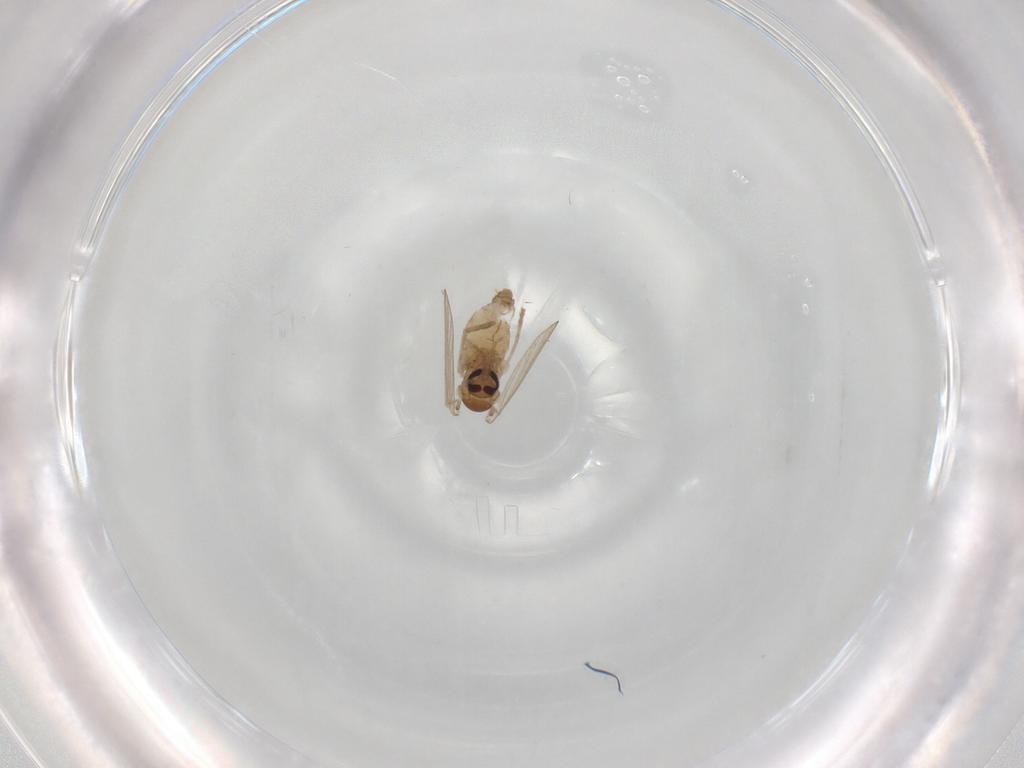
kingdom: Animalia
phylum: Arthropoda
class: Insecta
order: Diptera
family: Psychodidae
